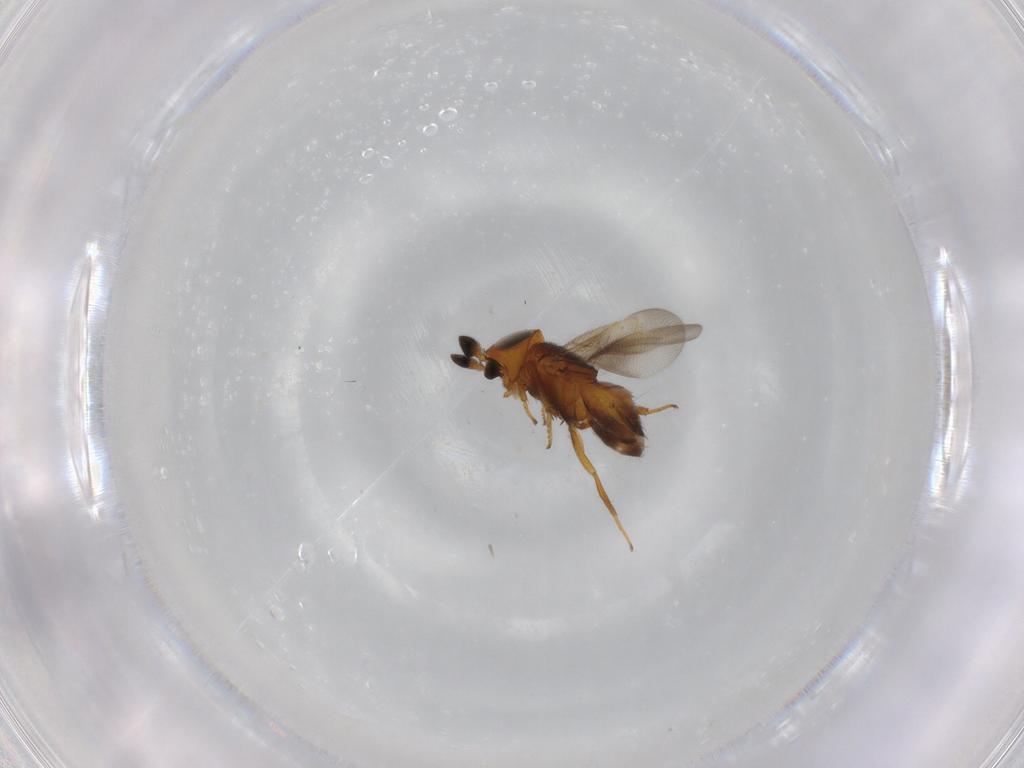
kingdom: Animalia
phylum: Arthropoda
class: Insecta
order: Hymenoptera
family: Encyrtidae
